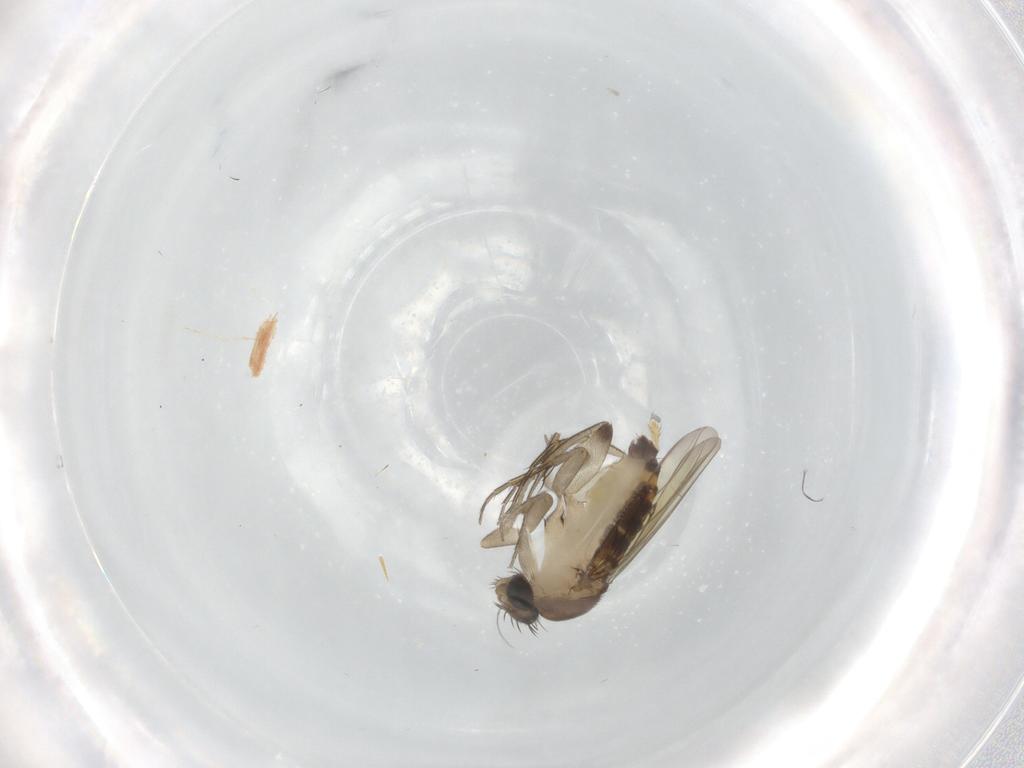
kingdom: Animalia
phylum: Arthropoda
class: Insecta
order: Diptera
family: Phoridae
